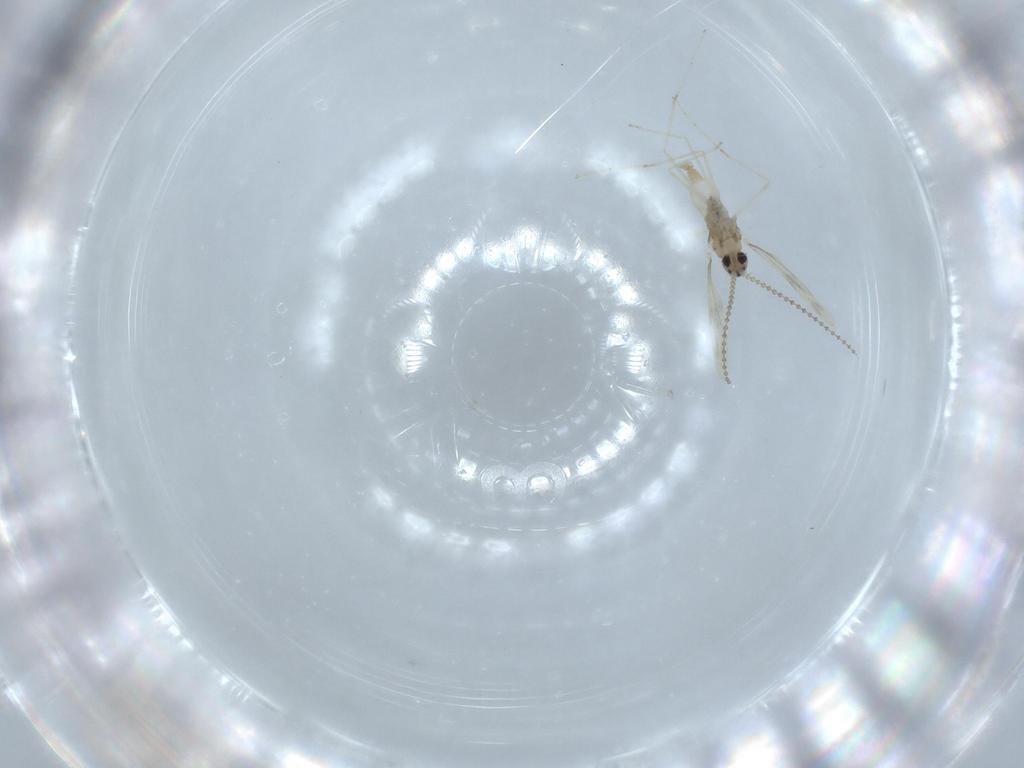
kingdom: Animalia
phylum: Arthropoda
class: Insecta
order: Diptera
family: Cecidomyiidae
